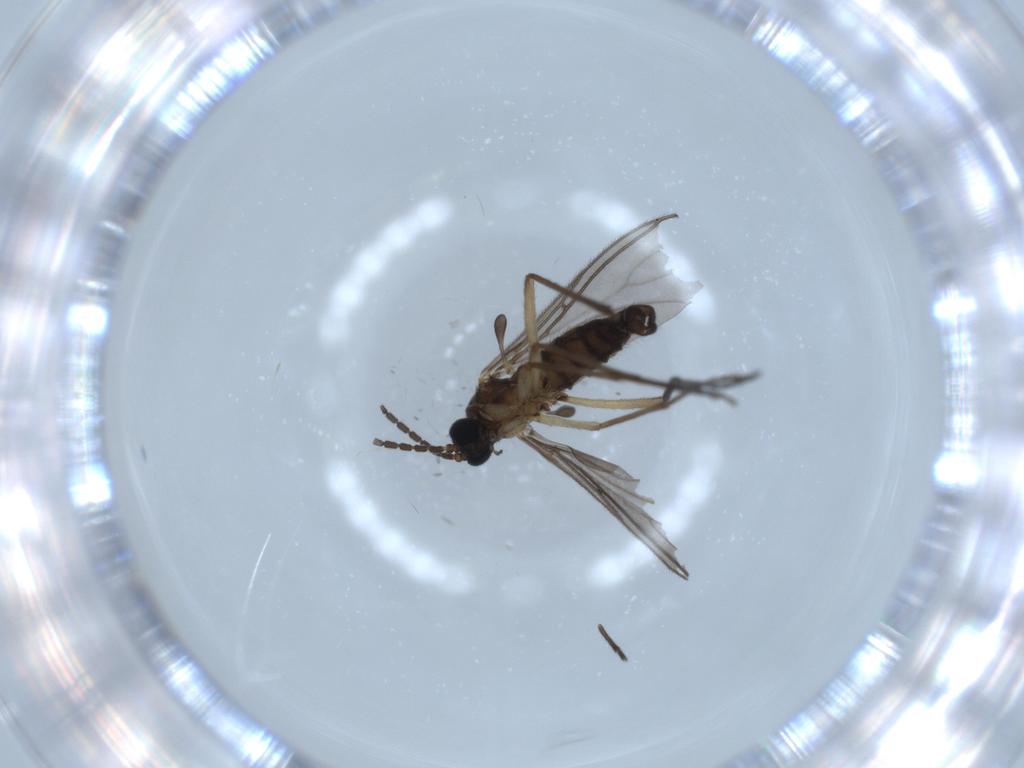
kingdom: Animalia
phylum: Arthropoda
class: Insecta
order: Diptera
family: Sciaridae
